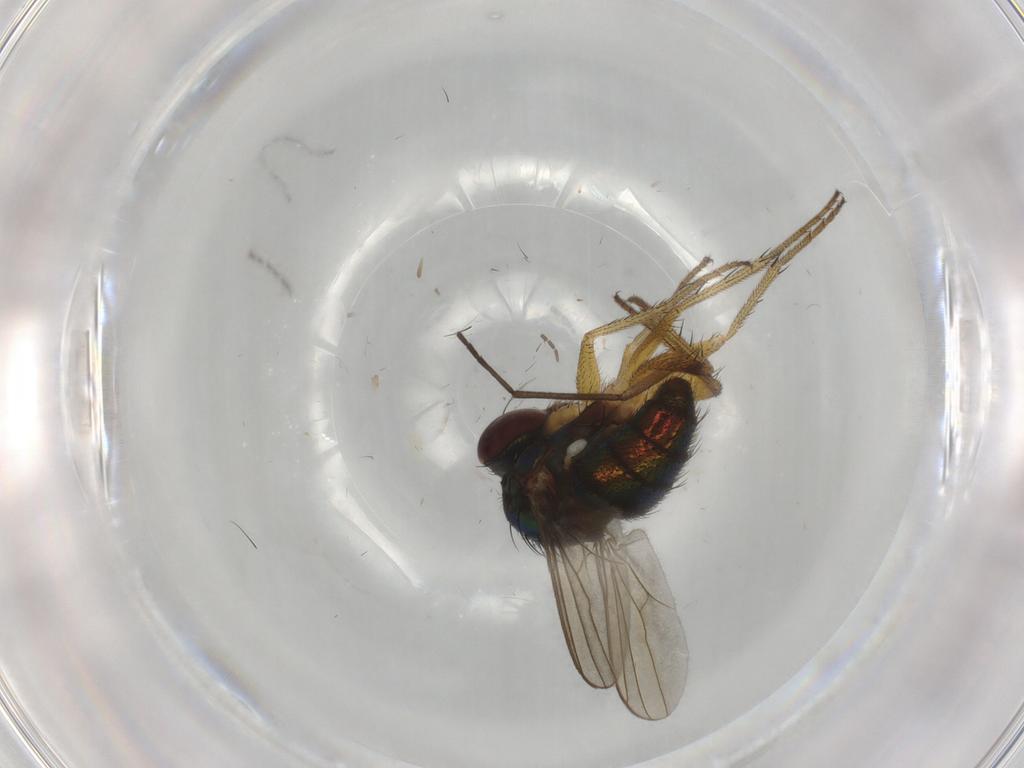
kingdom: Animalia
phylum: Arthropoda
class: Insecta
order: Diptera
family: Dolichopodidae
